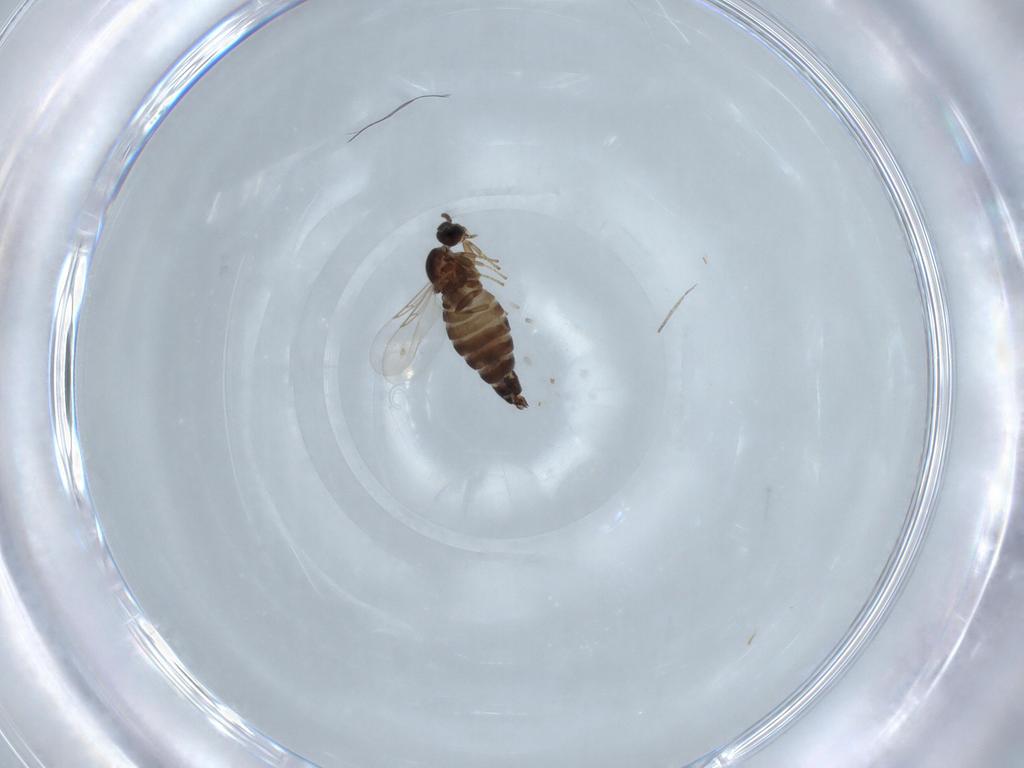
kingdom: Animalia
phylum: Arthropoda
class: Insecta
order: Diptera
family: Scatopsidae
